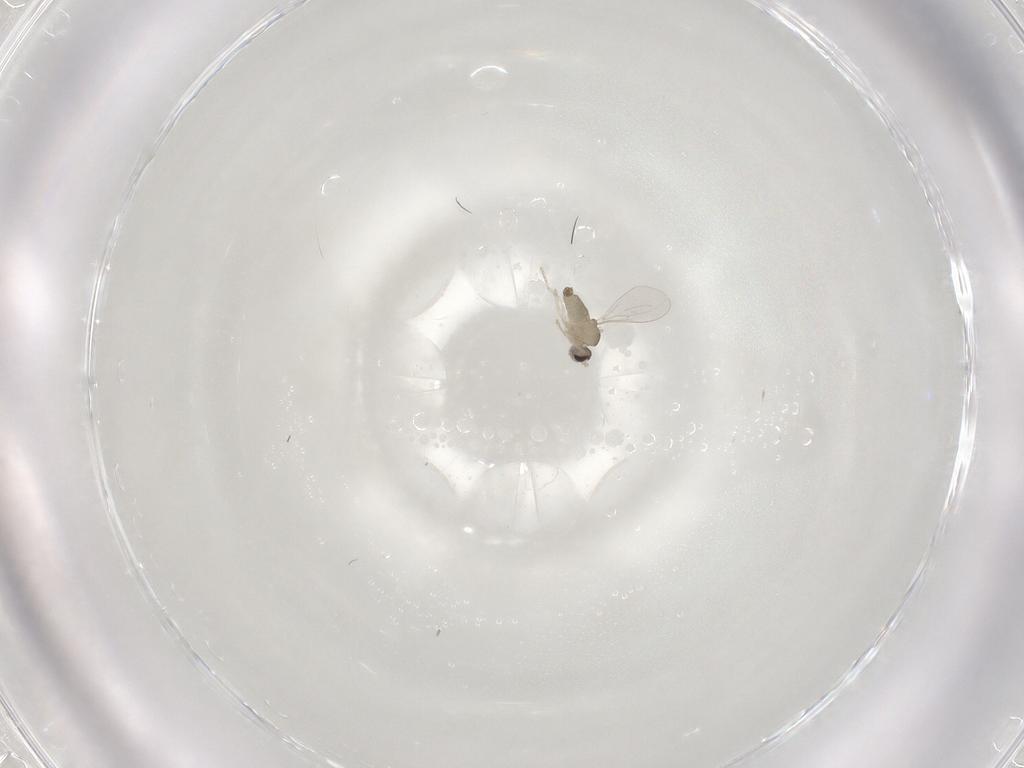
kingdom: Animalia
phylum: Arthropoda
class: Insecta
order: Diptera
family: Cecidomyiidae
